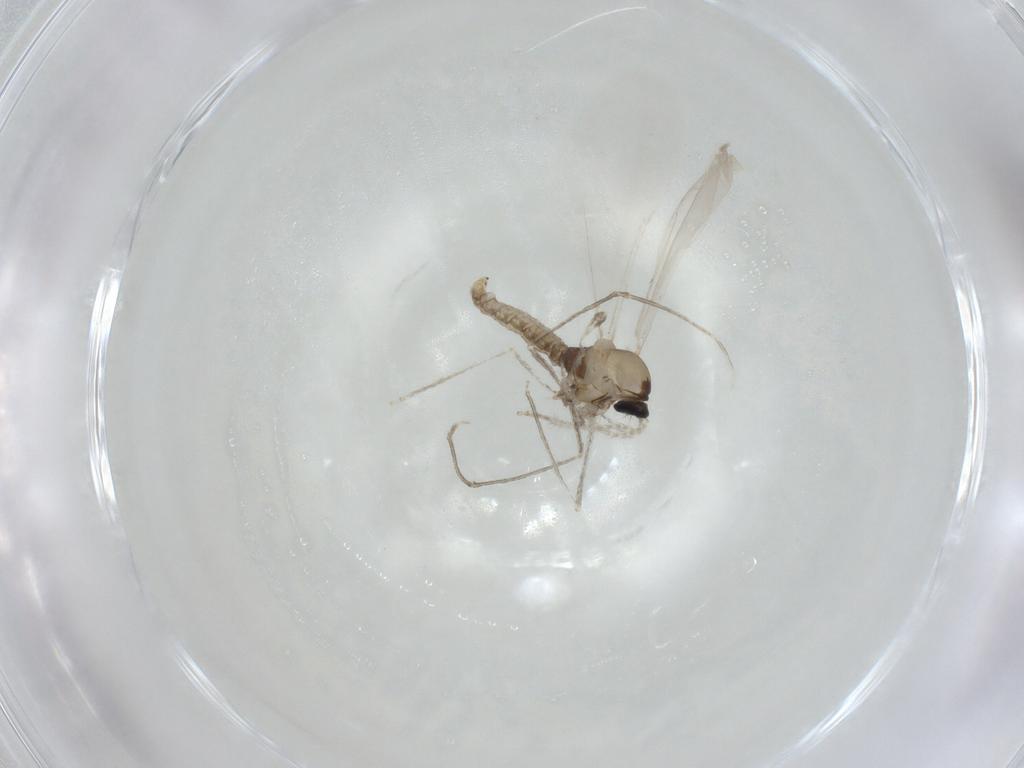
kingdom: Animalia
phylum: Arthropoda
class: Insecta
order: Diptera
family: Cecidomyiidae
